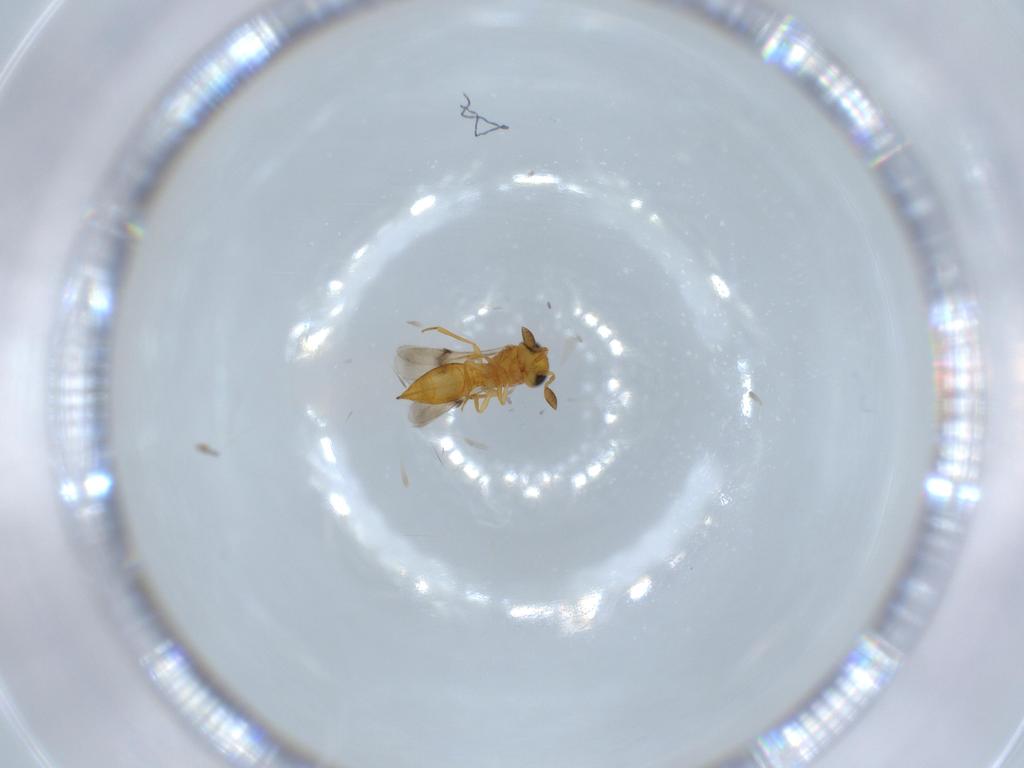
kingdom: Animalia
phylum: Arthropoda
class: Insecta
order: Hymenoptera
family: Scelionidae
